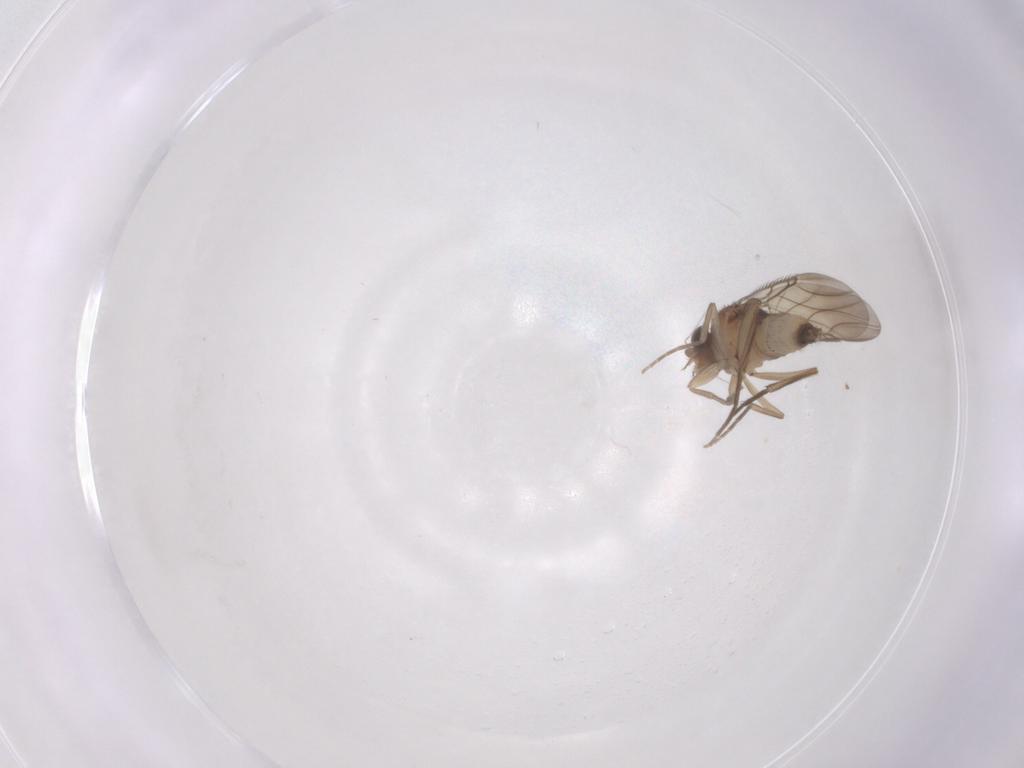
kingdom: Animalia
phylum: Arthropoda
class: Insecta
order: Diptera
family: Phoridae
